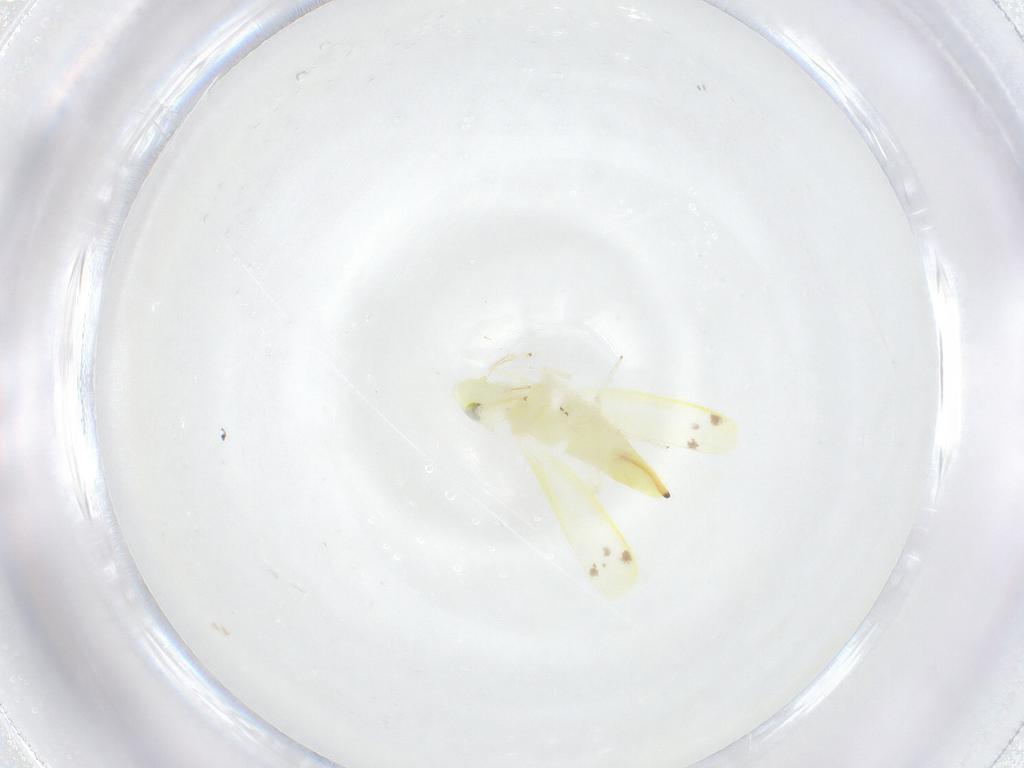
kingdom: Animalia
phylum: Arthropoda
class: Insecta
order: Hemiptera
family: Cicadellidae
